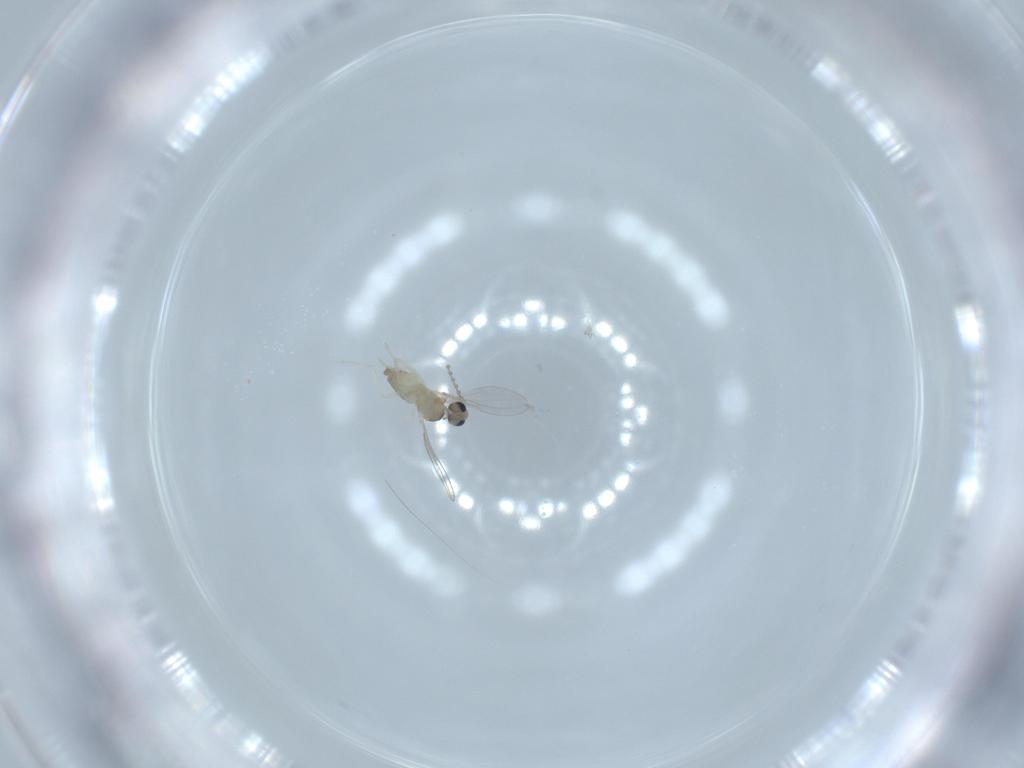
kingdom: Animalia
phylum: Arthropoda
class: Insecta
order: Diptera
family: Cecidomyiidae
